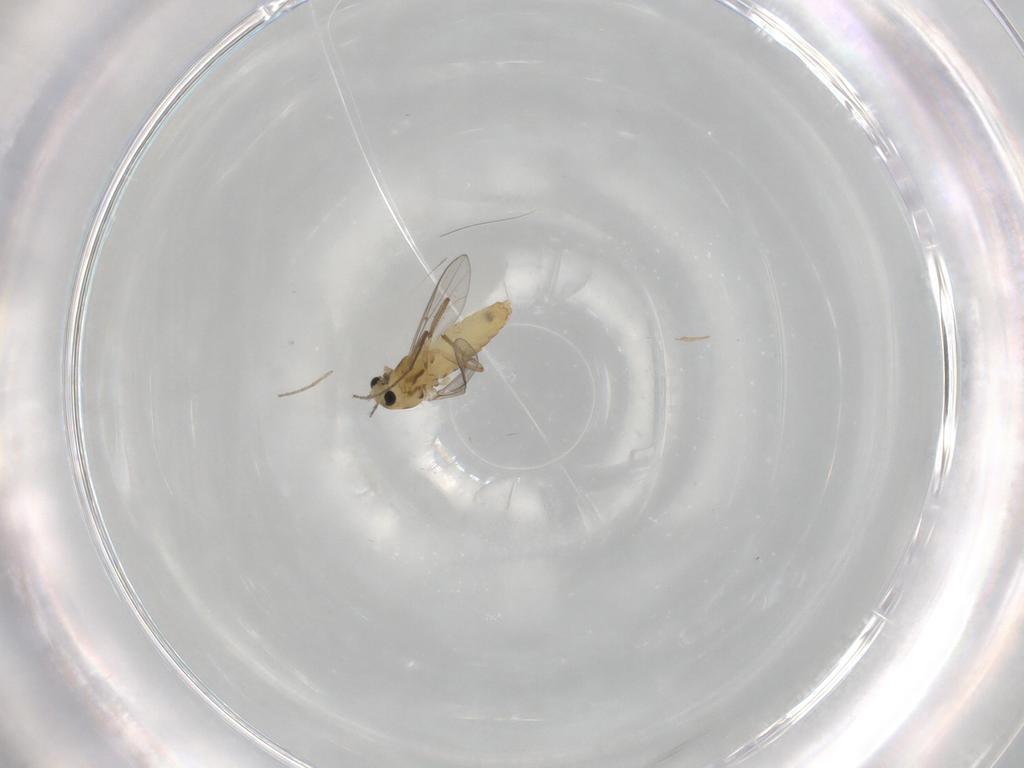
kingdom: Animalia
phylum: Arthropoda
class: Insecta
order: Diptera
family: Chironomidae
